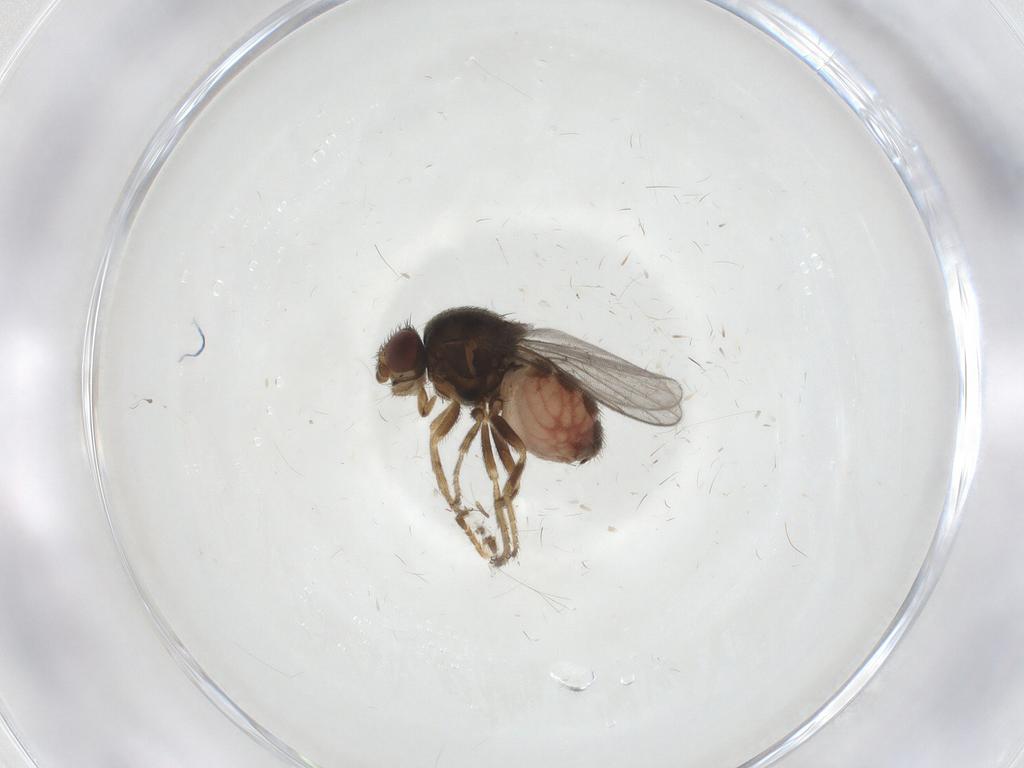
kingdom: Animalia
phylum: Arthropoda
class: Insecta
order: Diptera
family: Chloropidae
